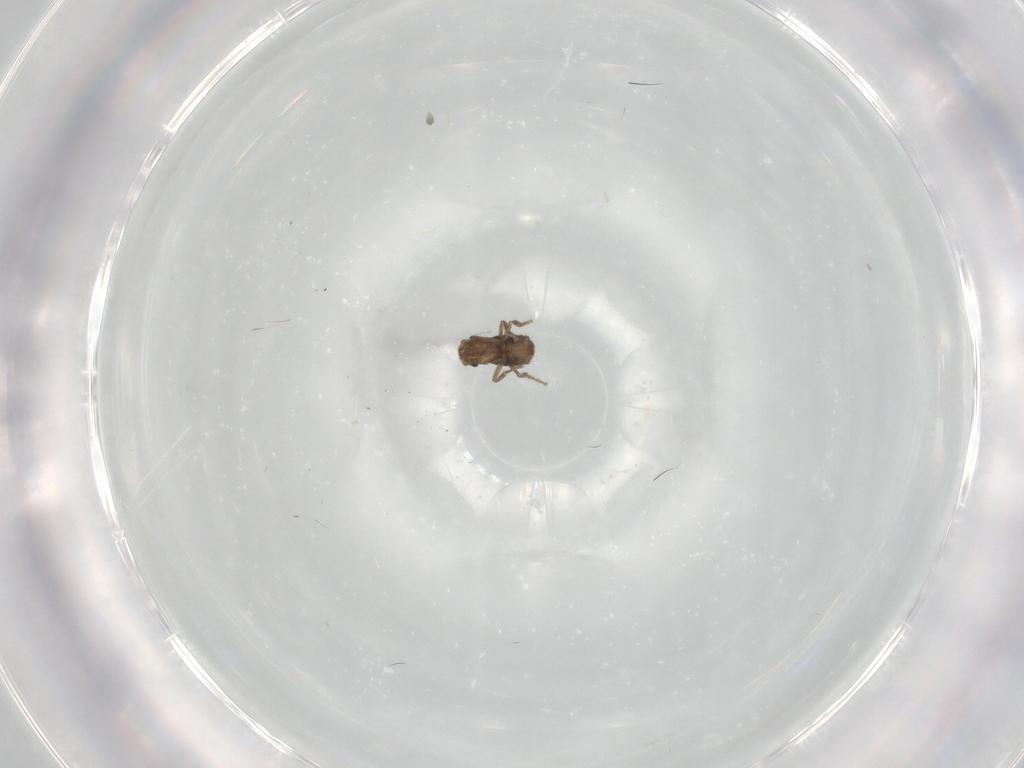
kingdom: Animalia
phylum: Arthropoda
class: Insecta
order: Diptera
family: Phoridae
